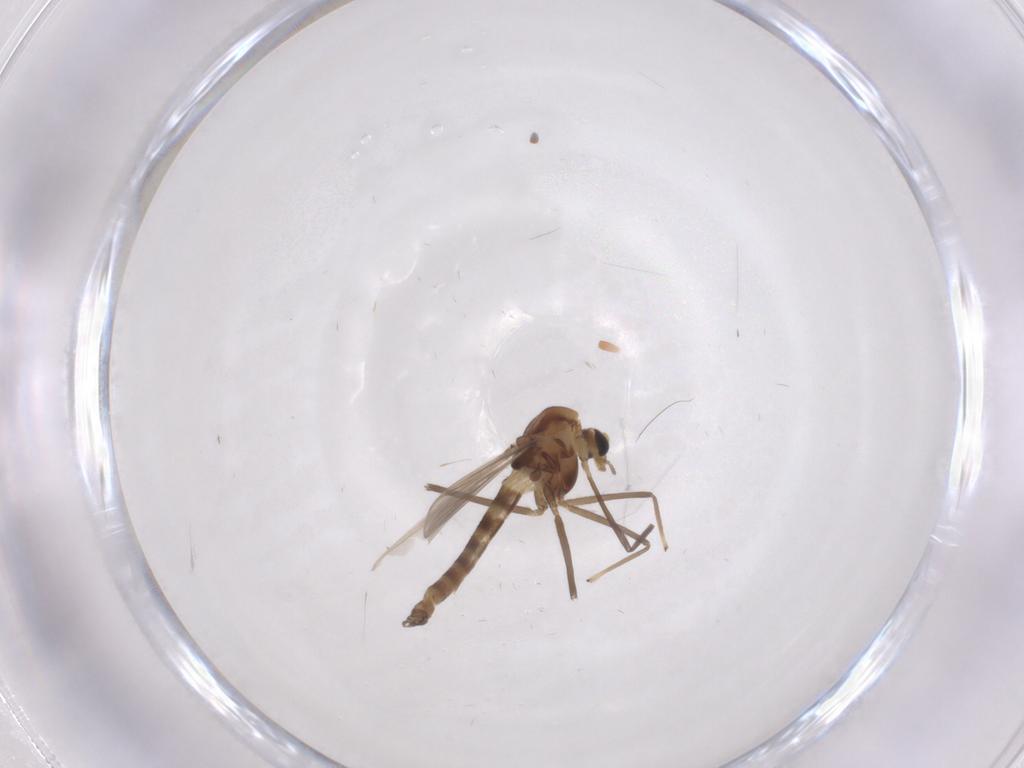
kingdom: Animalia
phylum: Arthropoda
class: Insecta
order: Diptera
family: Chironomidae
